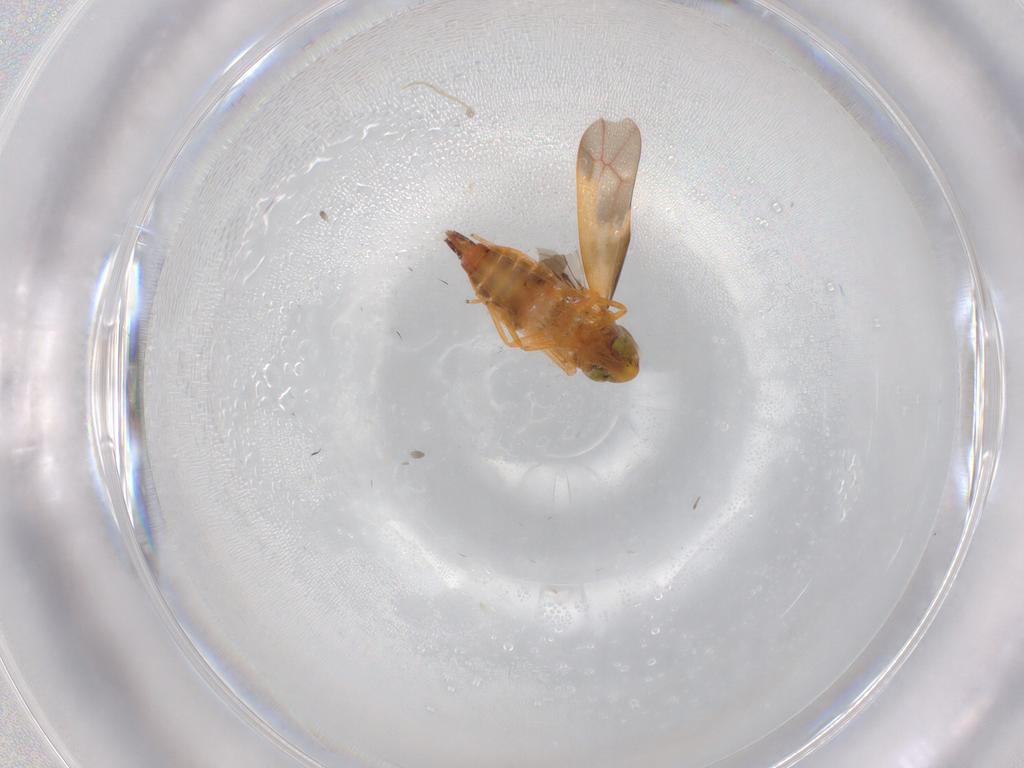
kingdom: Animalia
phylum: Arthropoda
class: Insecta
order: Hemiptera
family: Cicadellidae
